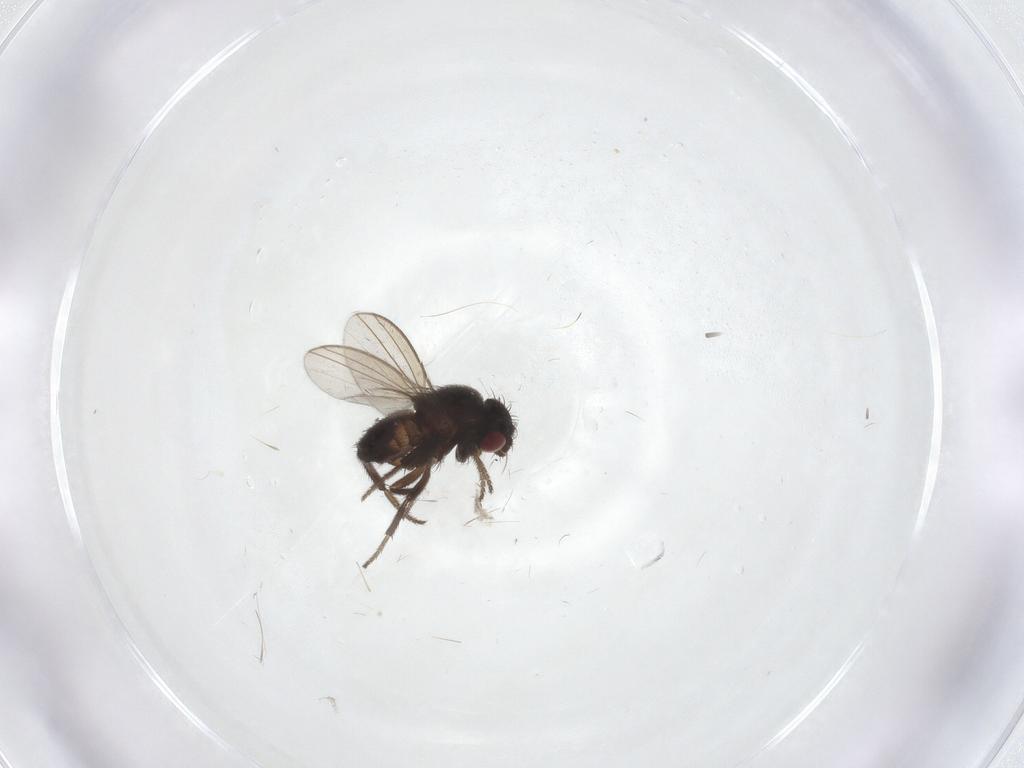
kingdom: Animalia
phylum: Arthropoda
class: Insecta
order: Diptera
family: Milichiidae
